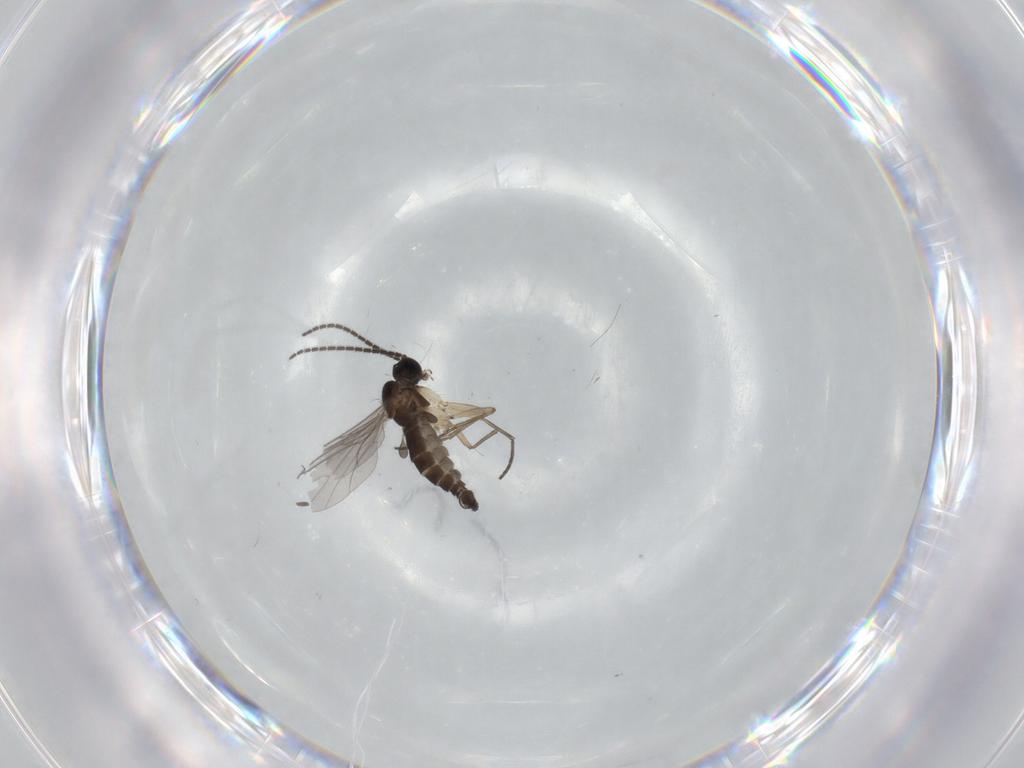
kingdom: Animalia
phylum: Arthropoda
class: Insecta
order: Diptera
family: Sciaridae
